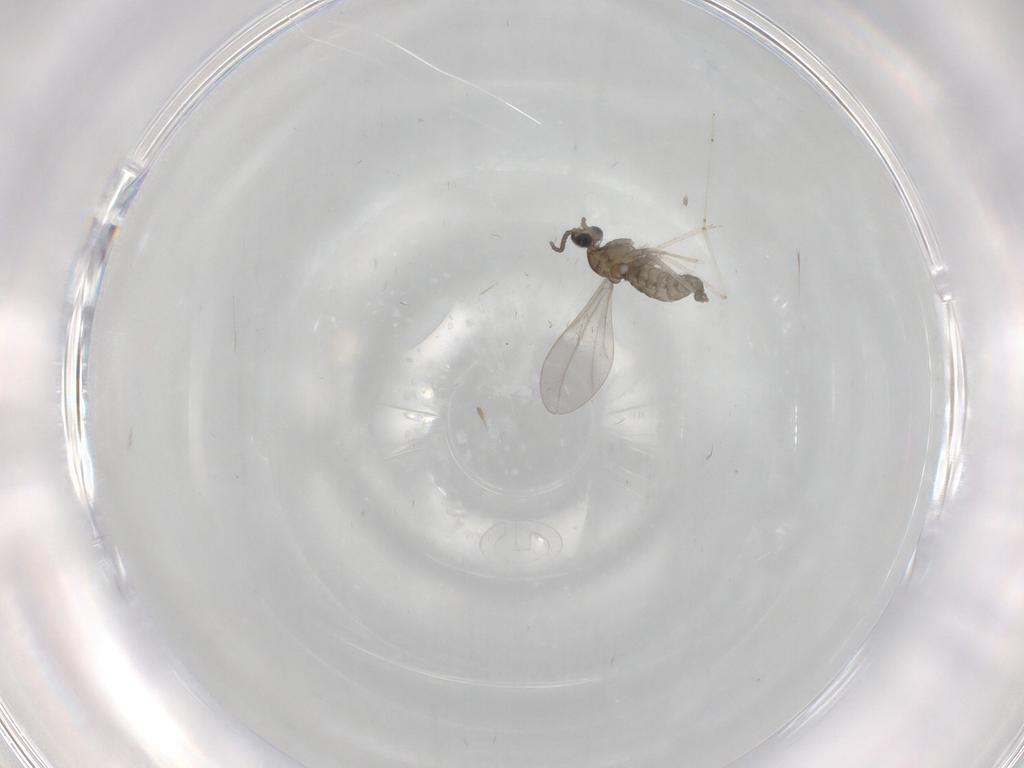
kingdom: Animalia
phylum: Arthropoda
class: Insecta
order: Diptera
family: Cecidomyiidae
